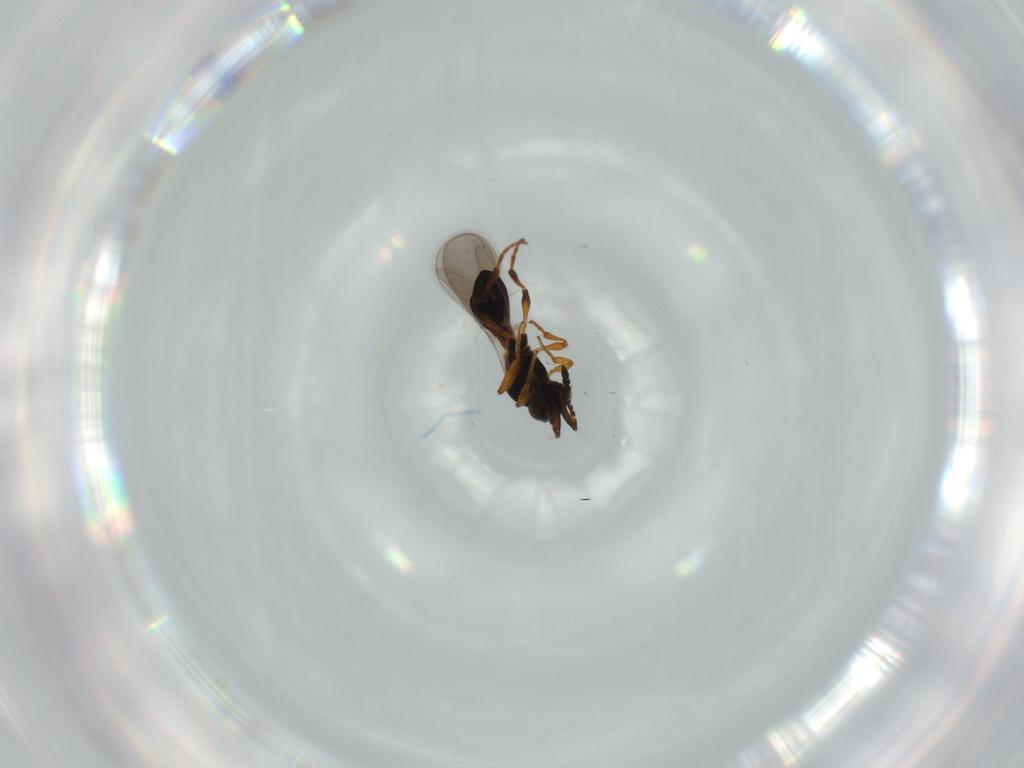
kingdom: Animalia
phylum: Arthropoda
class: Insecta
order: Hymenoptera
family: Platygastridae
